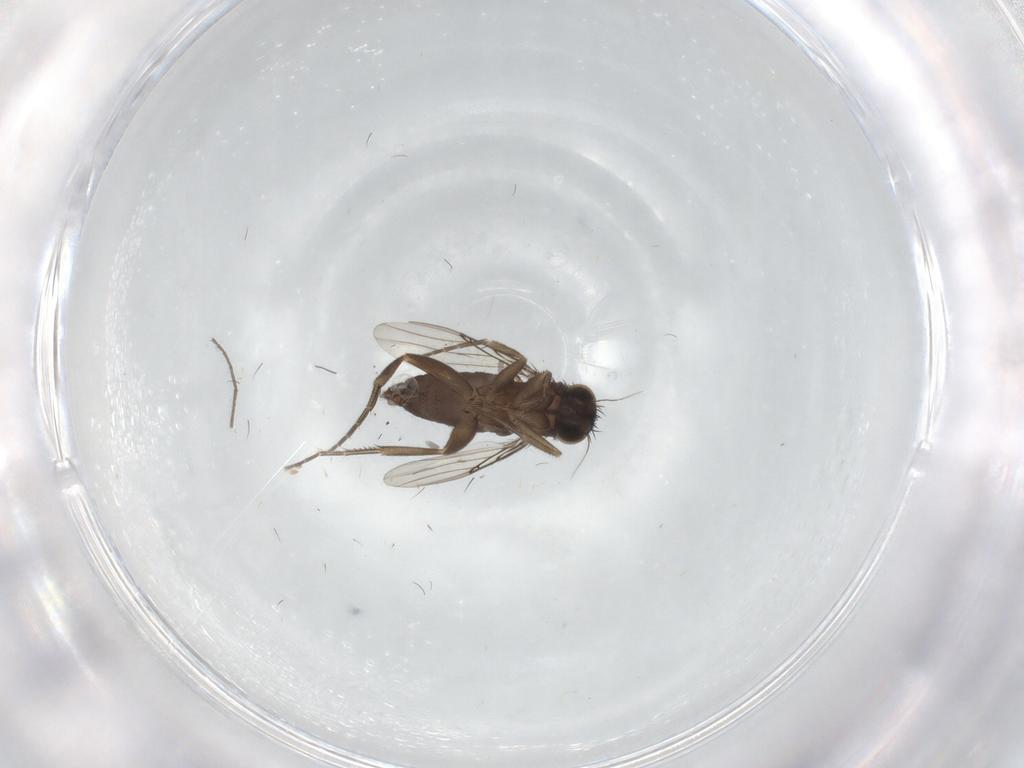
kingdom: Animalia
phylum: Arthropoda
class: Insecta
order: Diptera
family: Phoridae
